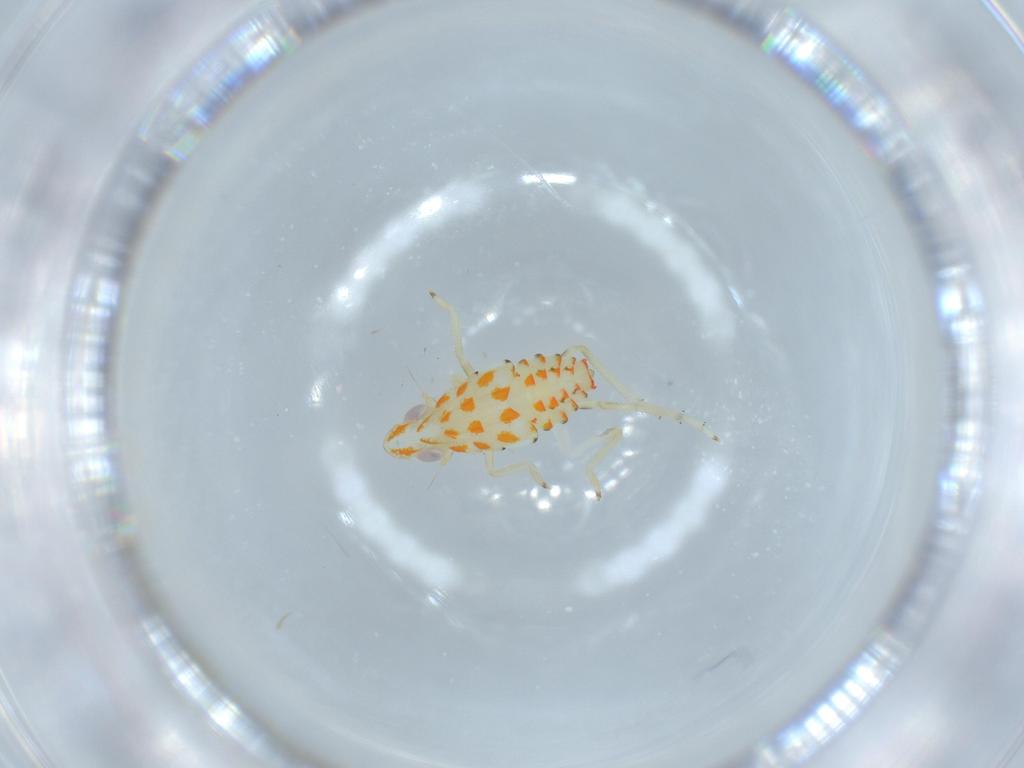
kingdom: Animalia
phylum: Arthropoda
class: Insecta
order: Hemiptera
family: Tropiduchidae
